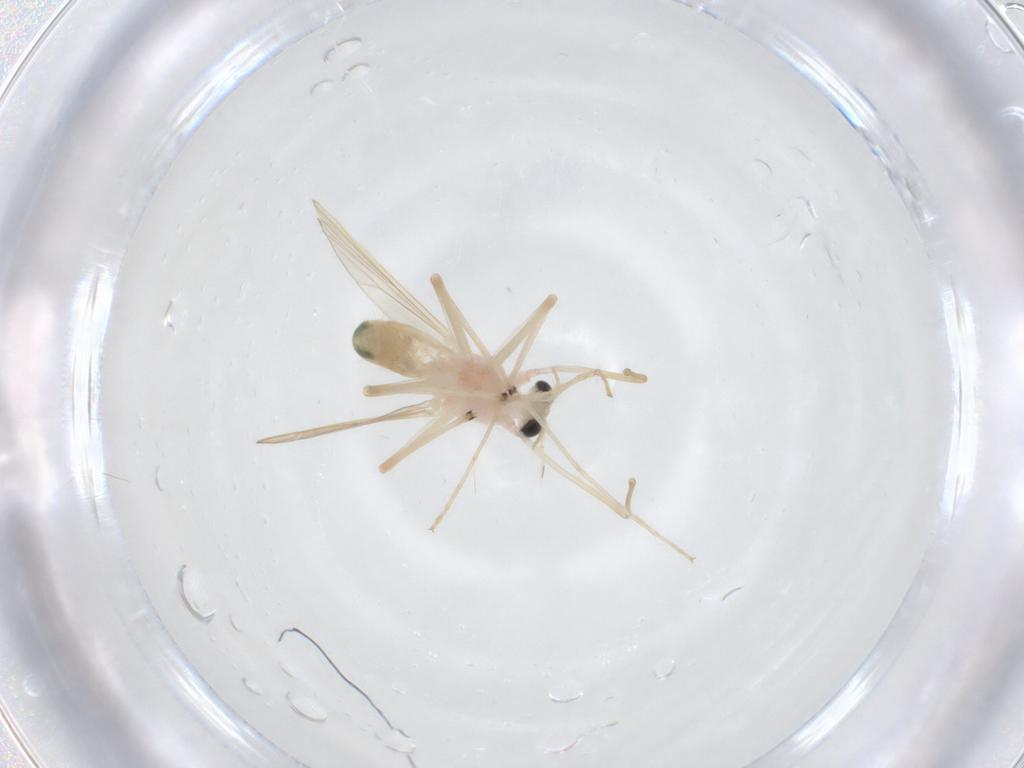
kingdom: Animalia
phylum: Arthropoda
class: Insecta
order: Diptera
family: Chironomidae
